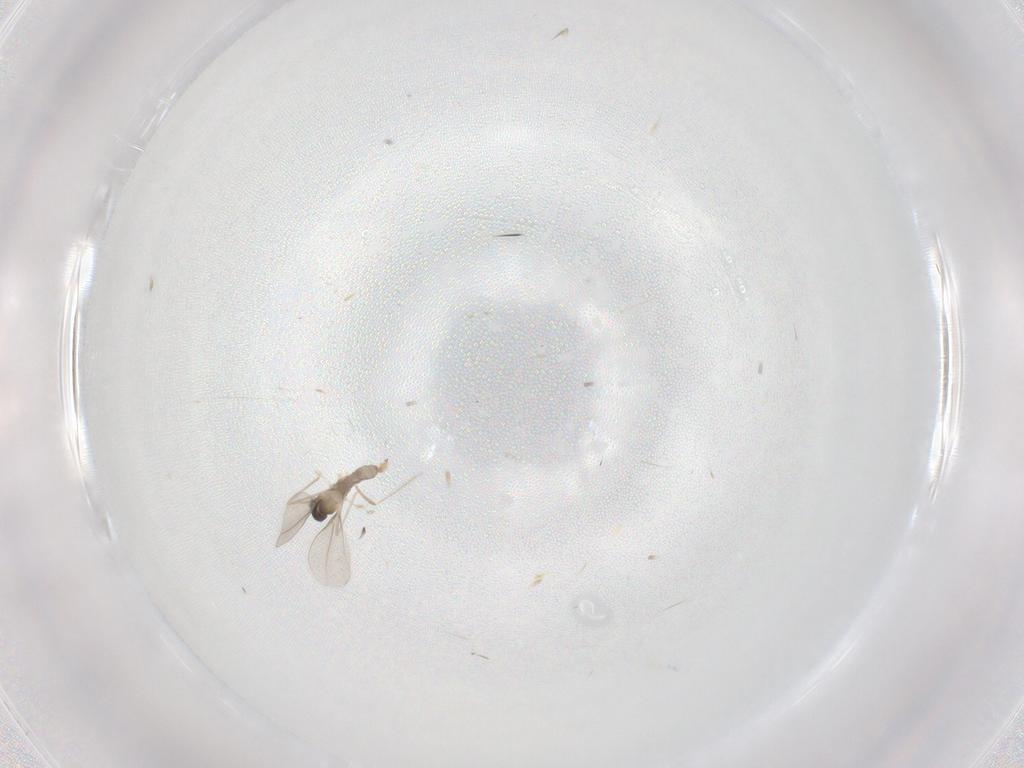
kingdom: Animalia
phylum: Arthropoda
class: Insecta
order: Diptera
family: Cecidomyiidae
